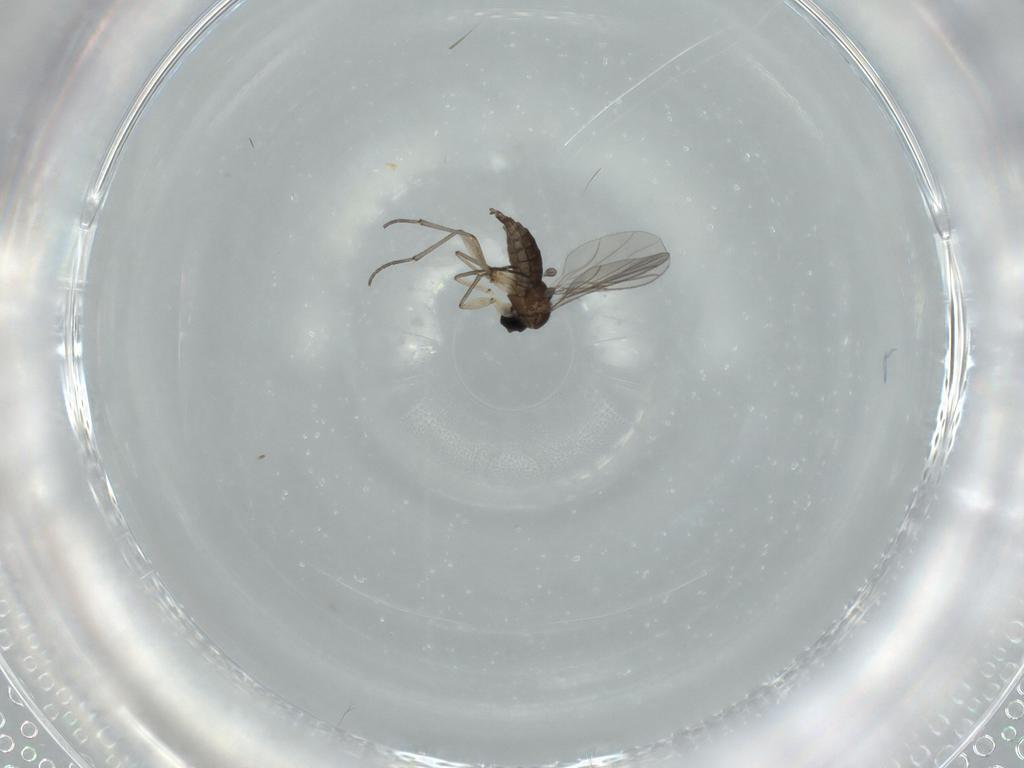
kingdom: Animalia
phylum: Arthropoda
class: Insecta
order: Diptera
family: Sciaridae
